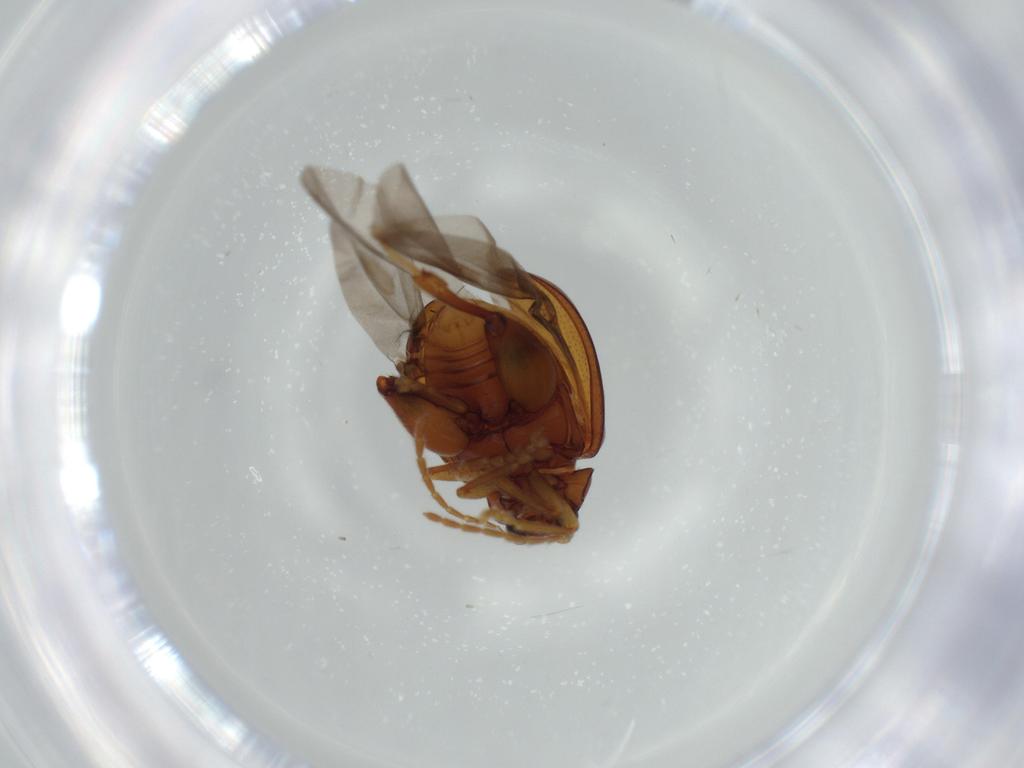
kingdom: Animalia
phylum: Arthropoda
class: Insecta
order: Coleoptera
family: Chrysomelidae
